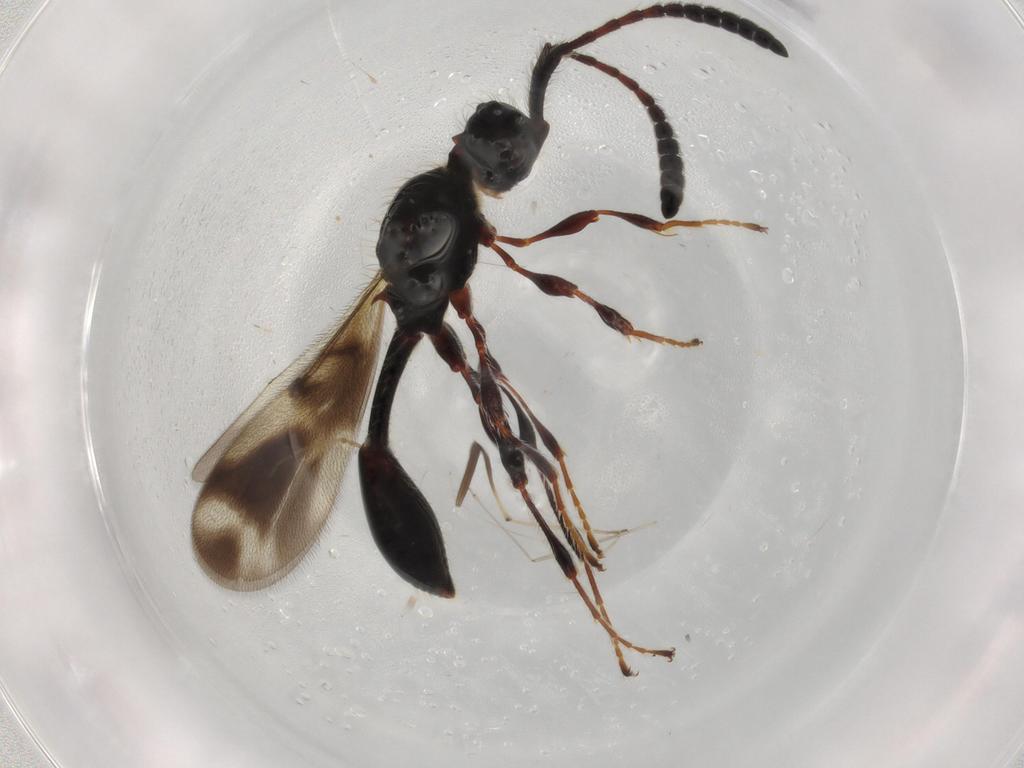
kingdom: Animalia
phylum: Arthropoda
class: Insecta
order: Hymenoptera
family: Diapriidae
